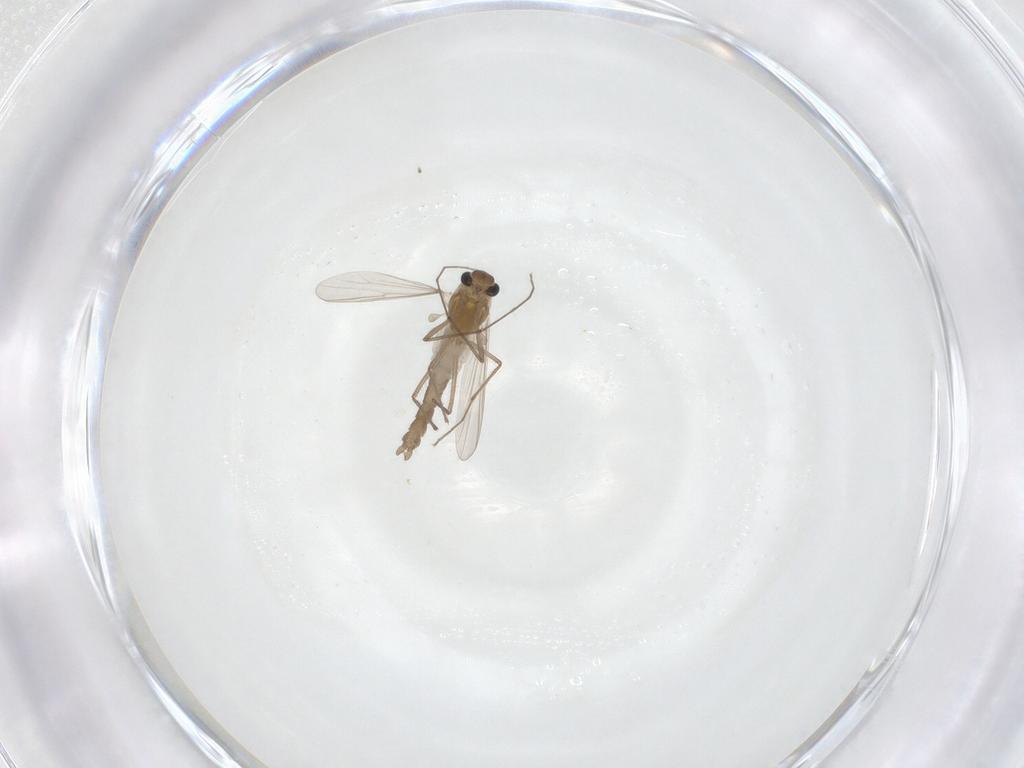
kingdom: Animalia
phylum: Arthropoda
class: Insecta
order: Diptera
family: Chironomidae
